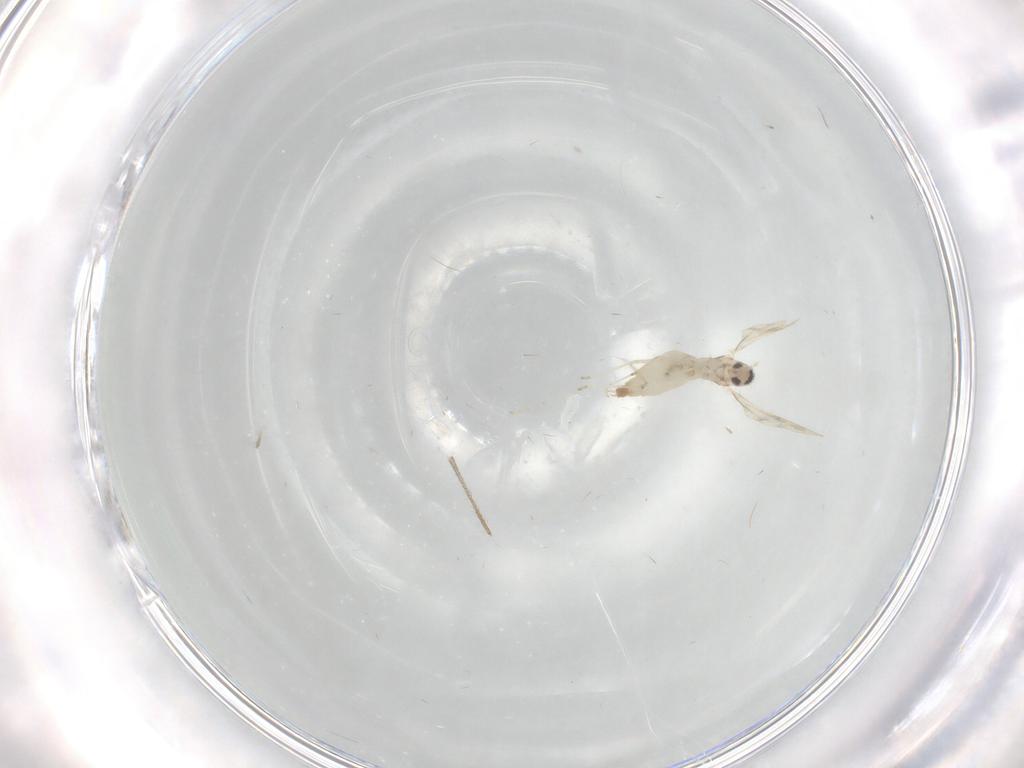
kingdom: Animalia
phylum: Arthropoda
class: Insecta
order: Diptera
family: Cecidomyiidae
